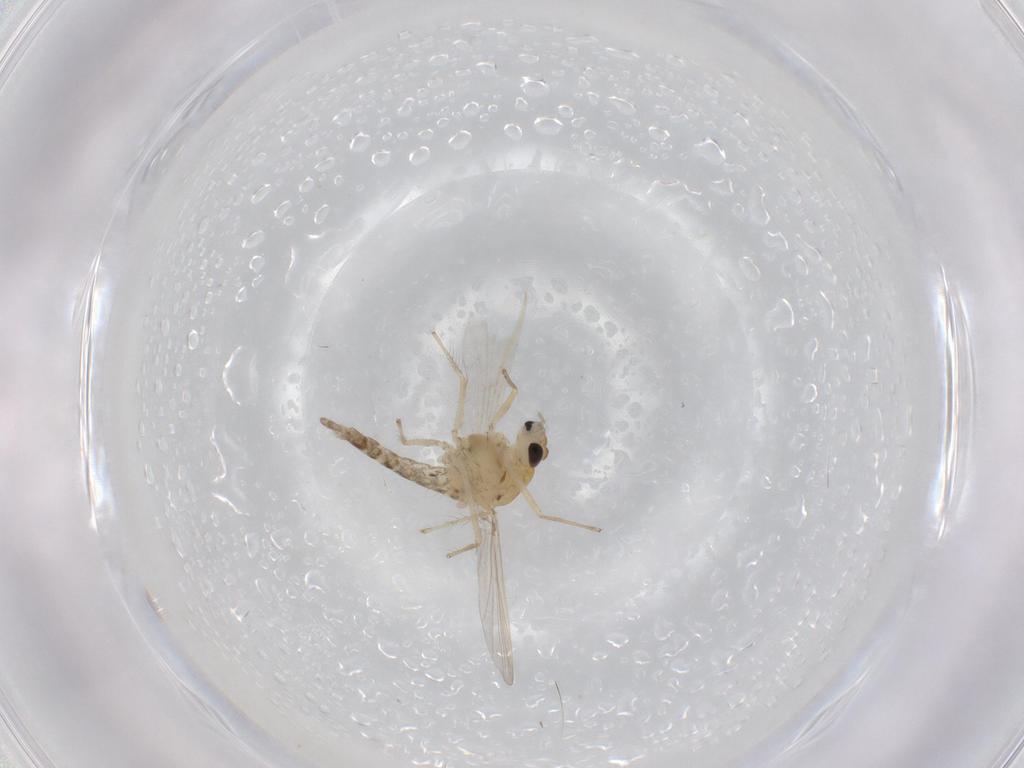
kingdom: Animalia
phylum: Arthropoda
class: Insecta
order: Diptera
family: Chironomidae
